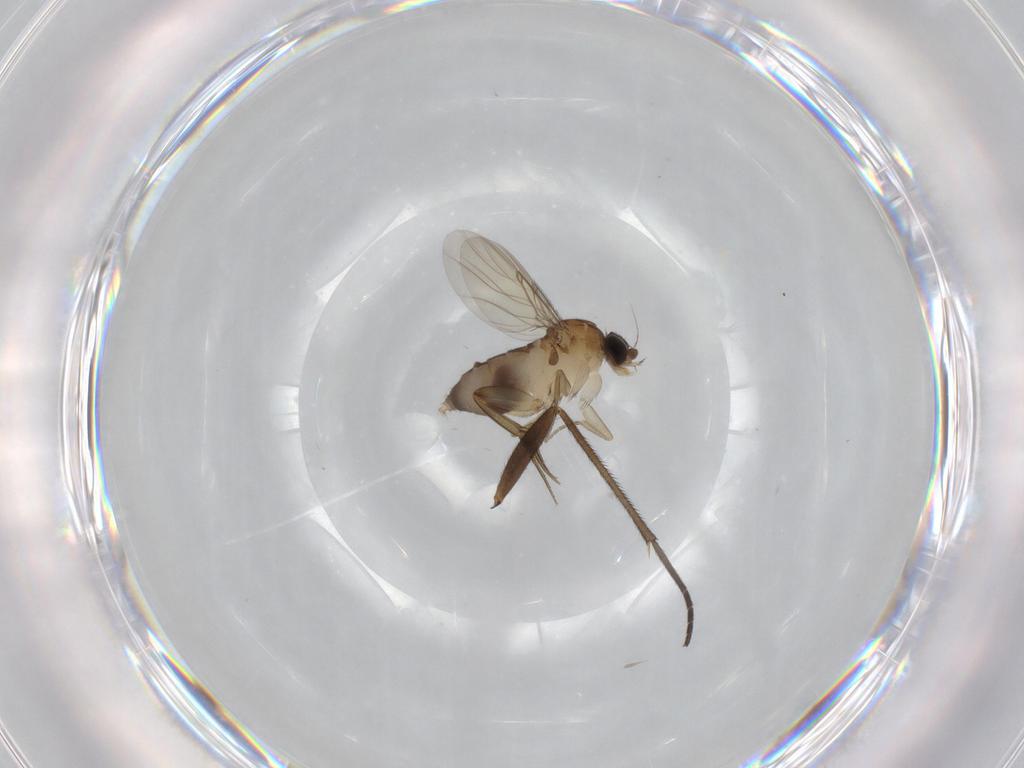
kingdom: Animalia
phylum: Arthropoda
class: Insecta
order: Diptera
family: Phoridae
